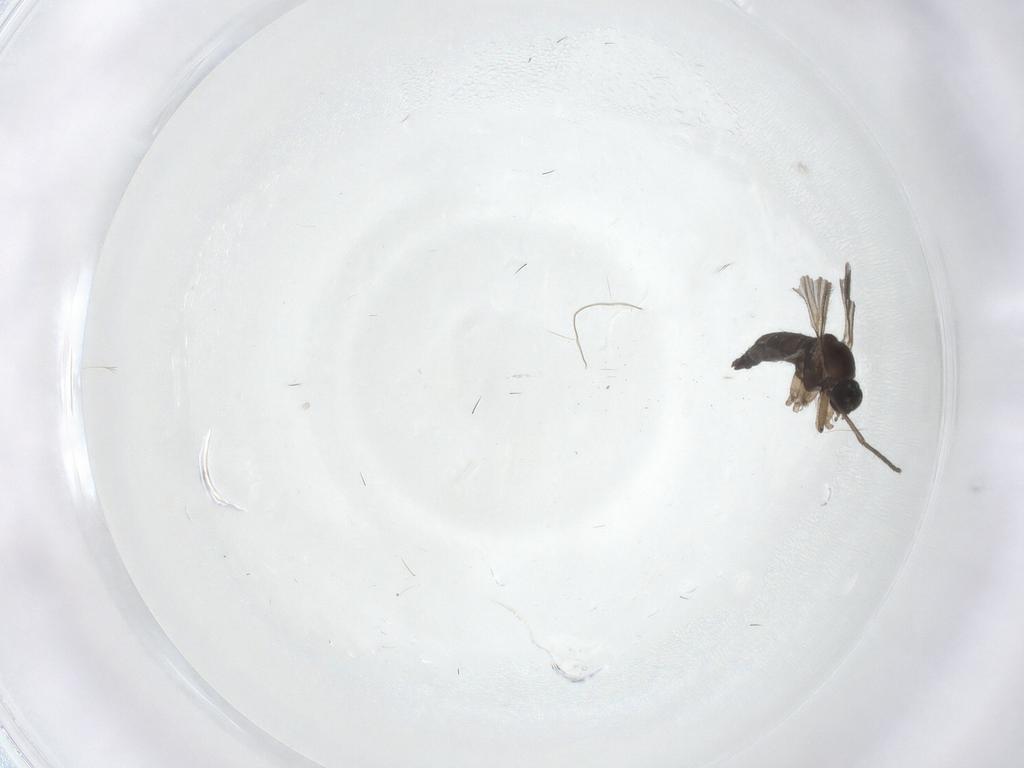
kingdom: Animalia
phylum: Arthropoda
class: Insecta
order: Diptera
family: Sciaridae
